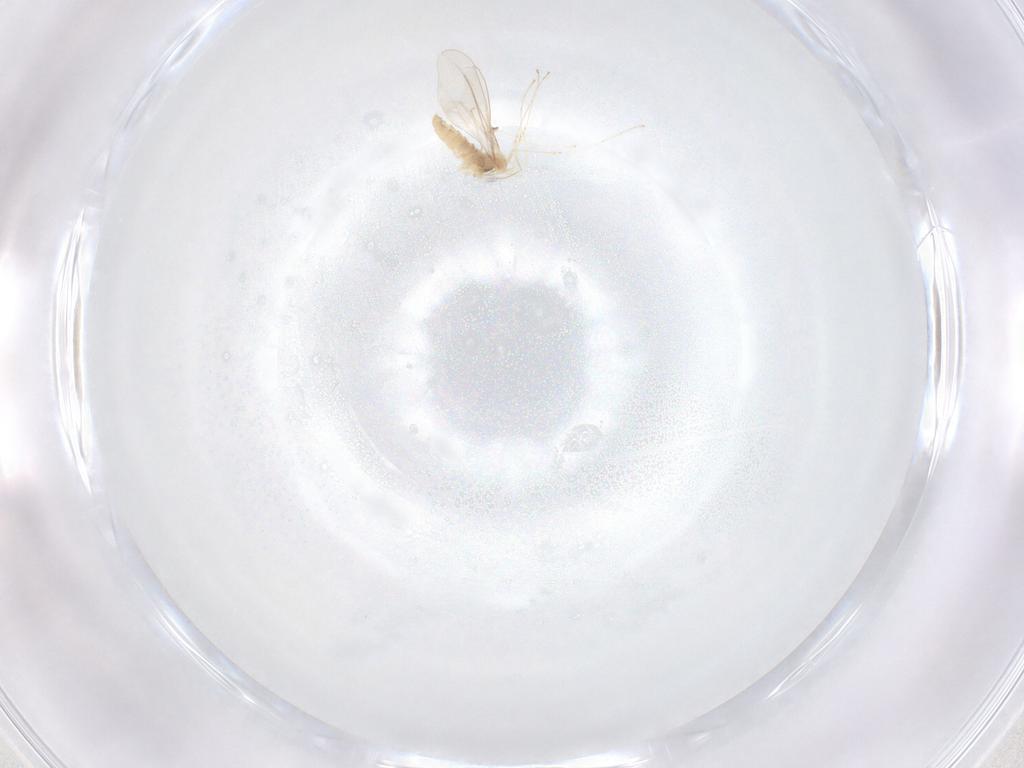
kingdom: Animalia
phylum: Arthropoda
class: Insecta
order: Diptera
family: Cecidomyiidae
